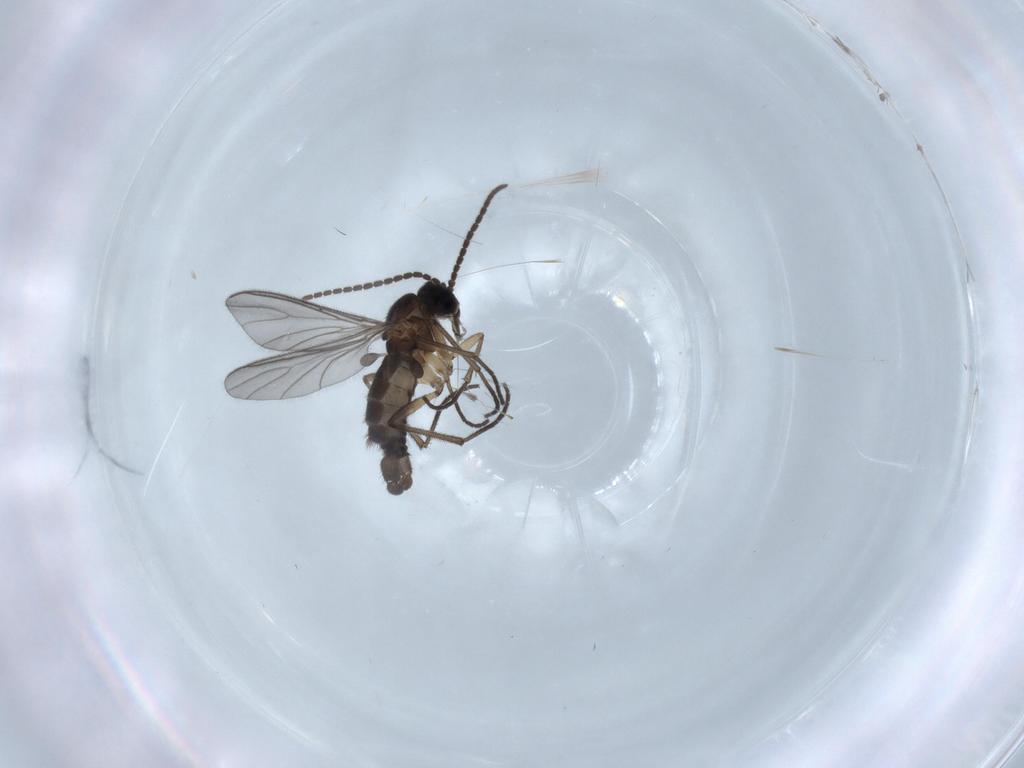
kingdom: Animalia
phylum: Arthropoda
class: Insecta
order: Diptera
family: Sciaridae
